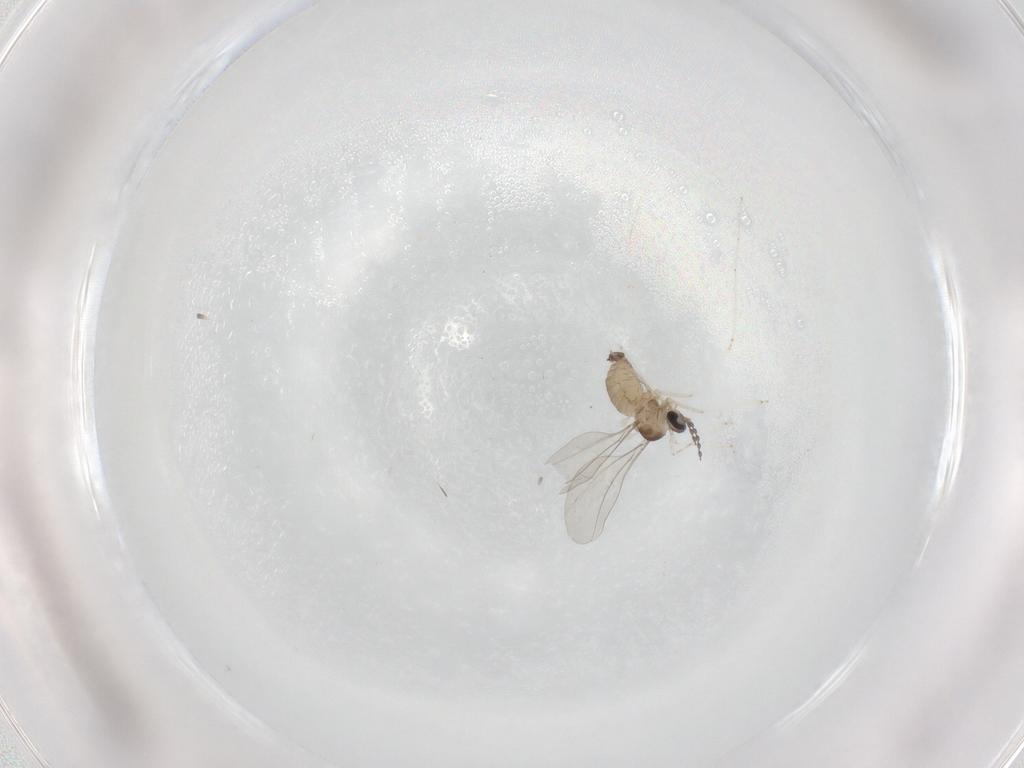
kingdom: Animalia
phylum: Arthropoda
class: Insecta
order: Diptera
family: Cecidomyiidae
